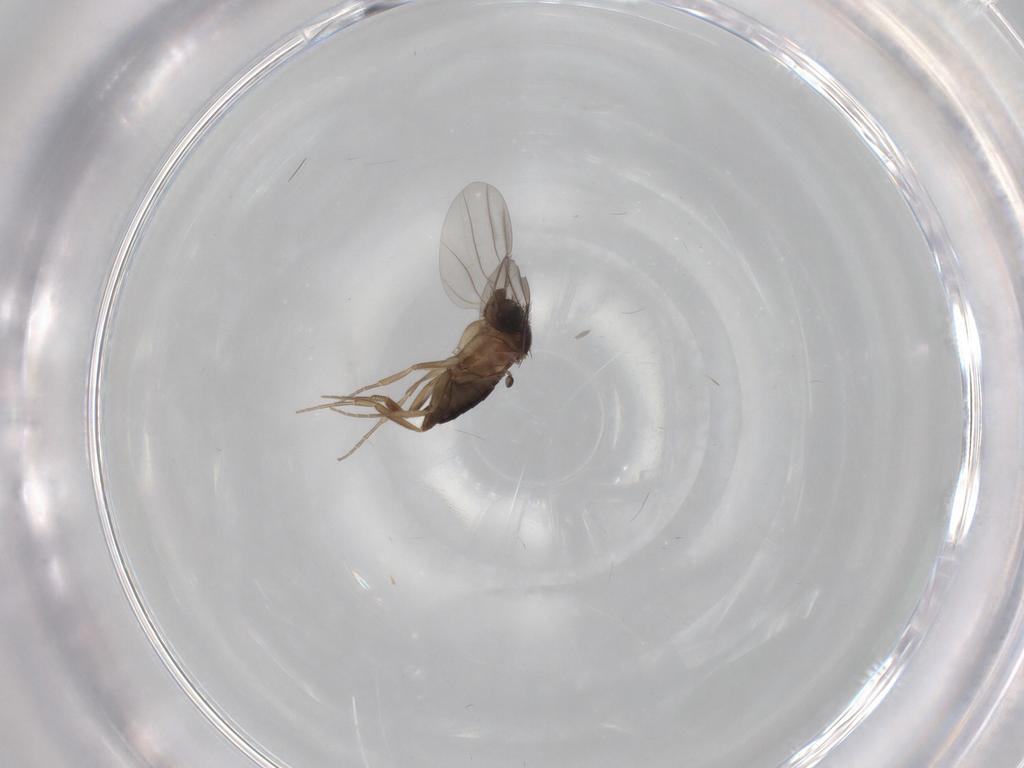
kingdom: Animalia
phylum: Arthropoda
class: Insecta
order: Diptera
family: Phoridae
